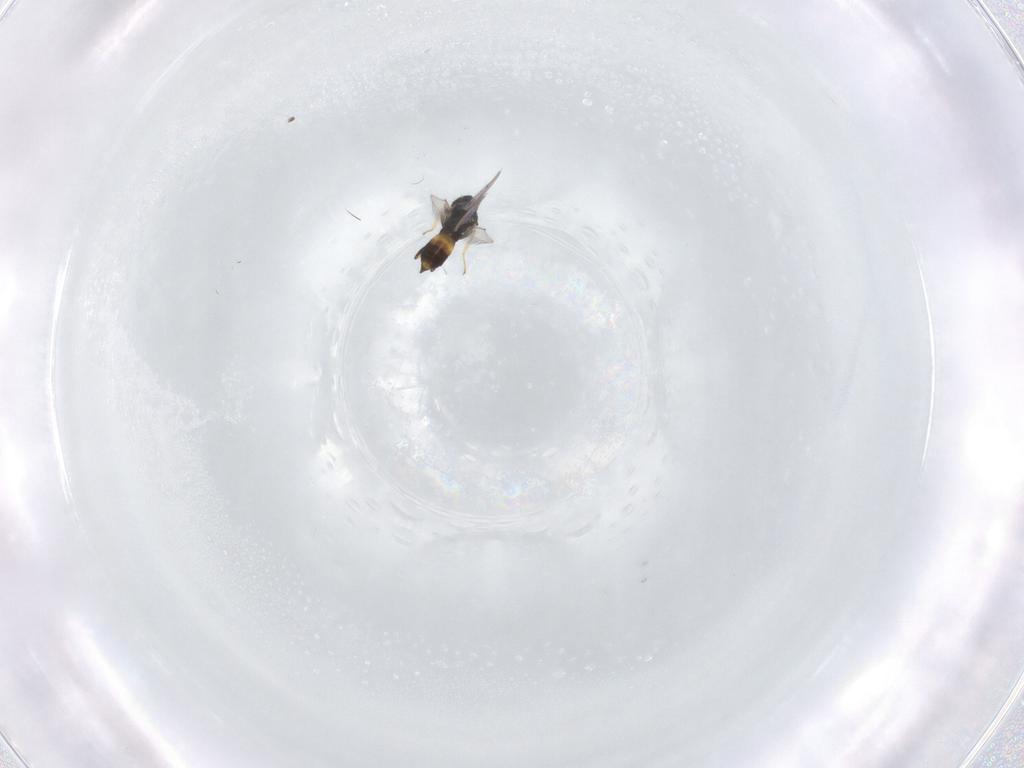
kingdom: Animalia
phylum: Arthropoda
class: Insecta
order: Hymenoptera
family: Eulophidae
